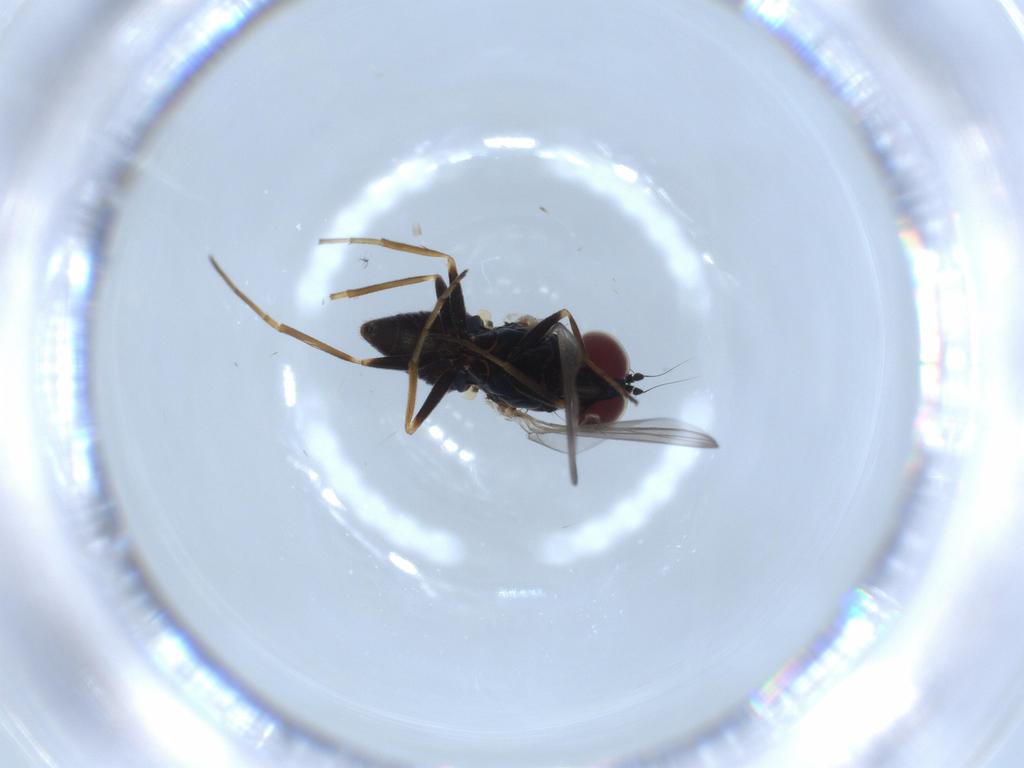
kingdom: Animalia
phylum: Arthropoda
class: Insecta
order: Diptera
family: Dolichopodidae
